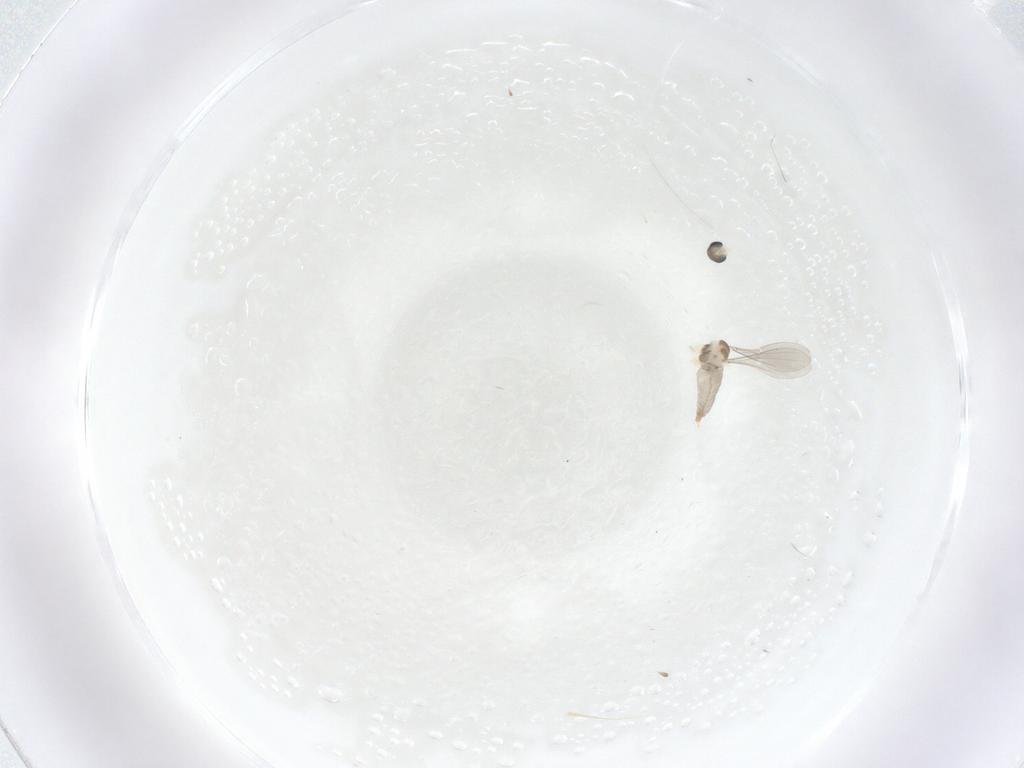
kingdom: Animalia
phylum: Arthropoda
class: Insecta
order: Diptera
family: Cecidomyiidae
